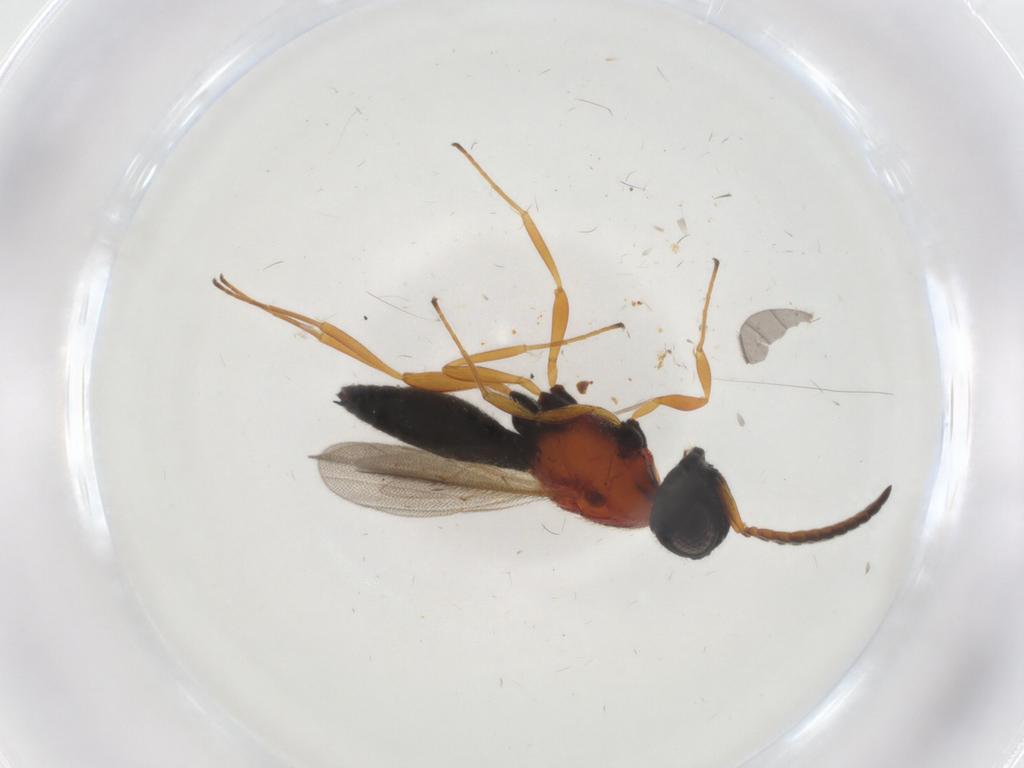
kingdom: Animalia
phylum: Arthropoda
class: Insecta
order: Hymenoptera
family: Scelionidae
